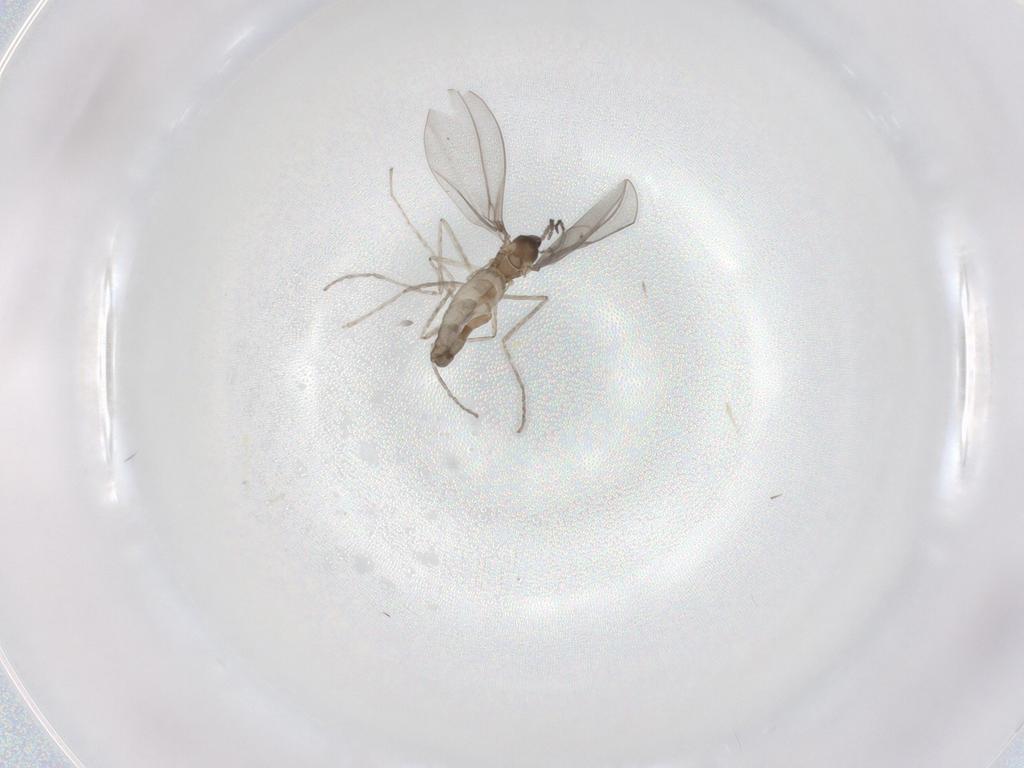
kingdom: Animalia
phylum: Arthropoda
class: Insecta
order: Diptera
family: Cecidomyiidae
